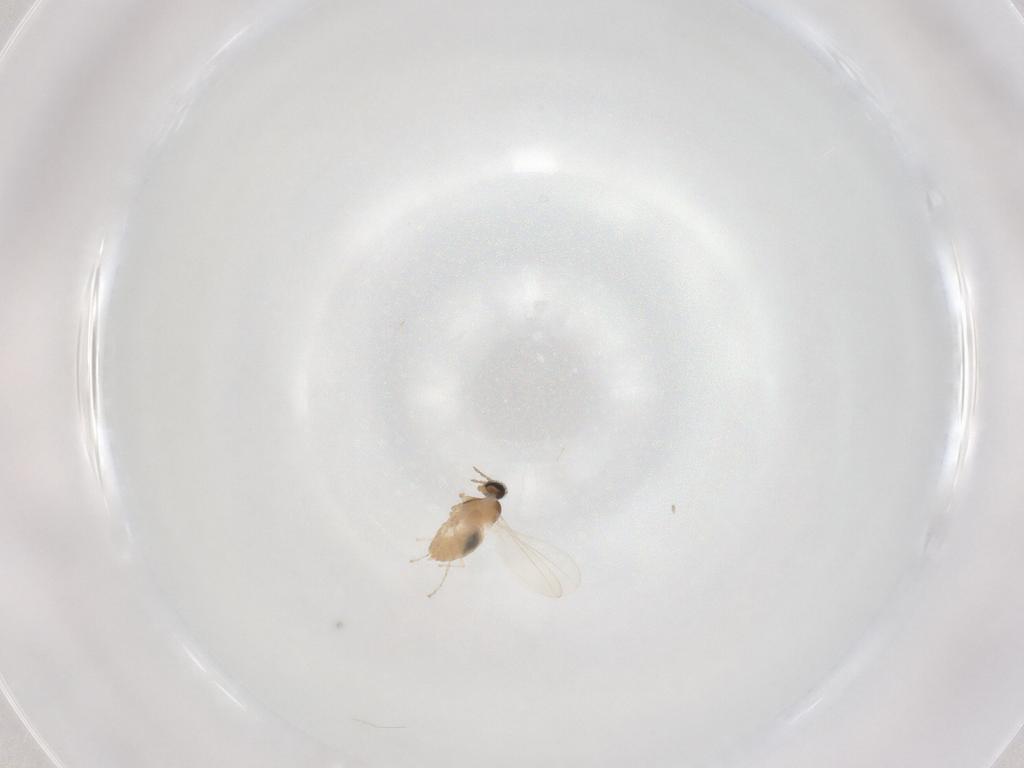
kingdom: Animalia
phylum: Arthropoda
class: Insecta
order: Diptera
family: Cecidomyiidae
